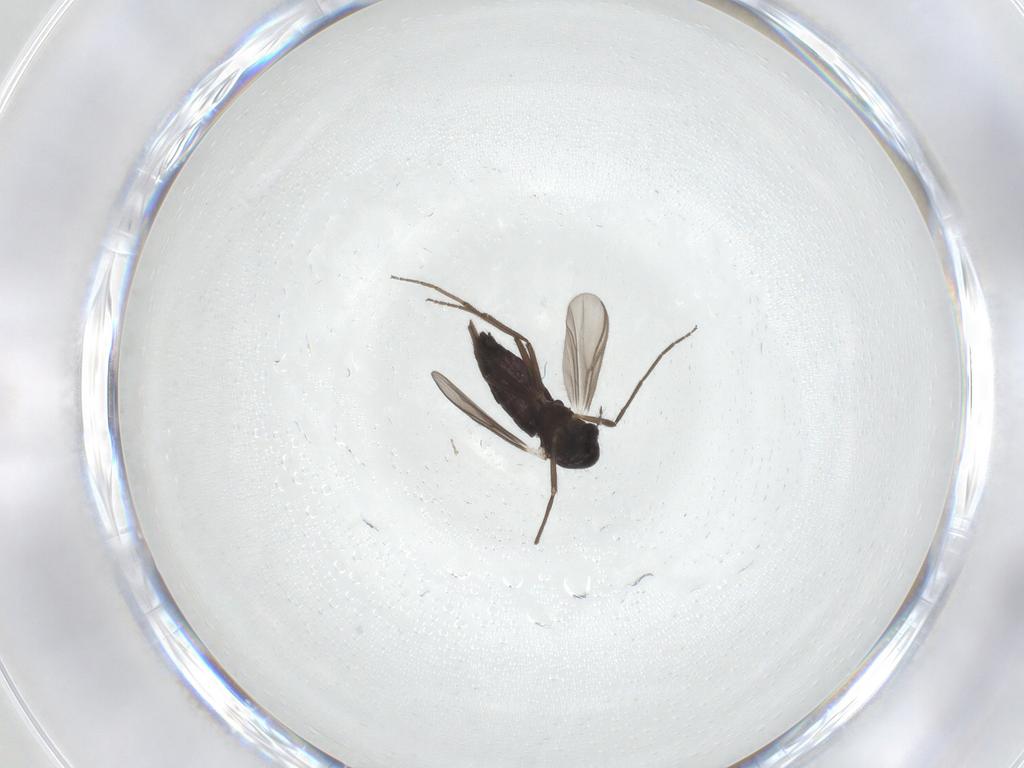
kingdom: Animalia
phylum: Arthropoda
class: Insecta
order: Diptera
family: Chironomidae
